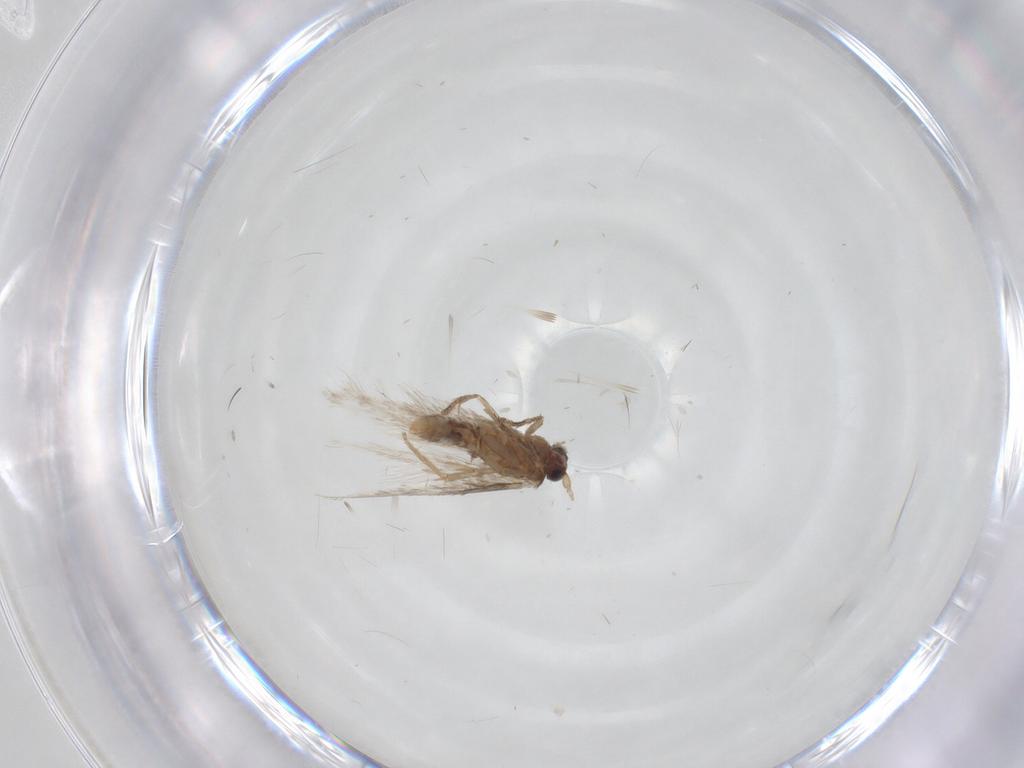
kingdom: Animalia
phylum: Arthropoda
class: Insecta
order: Lepidoptera
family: Nepticulidae
